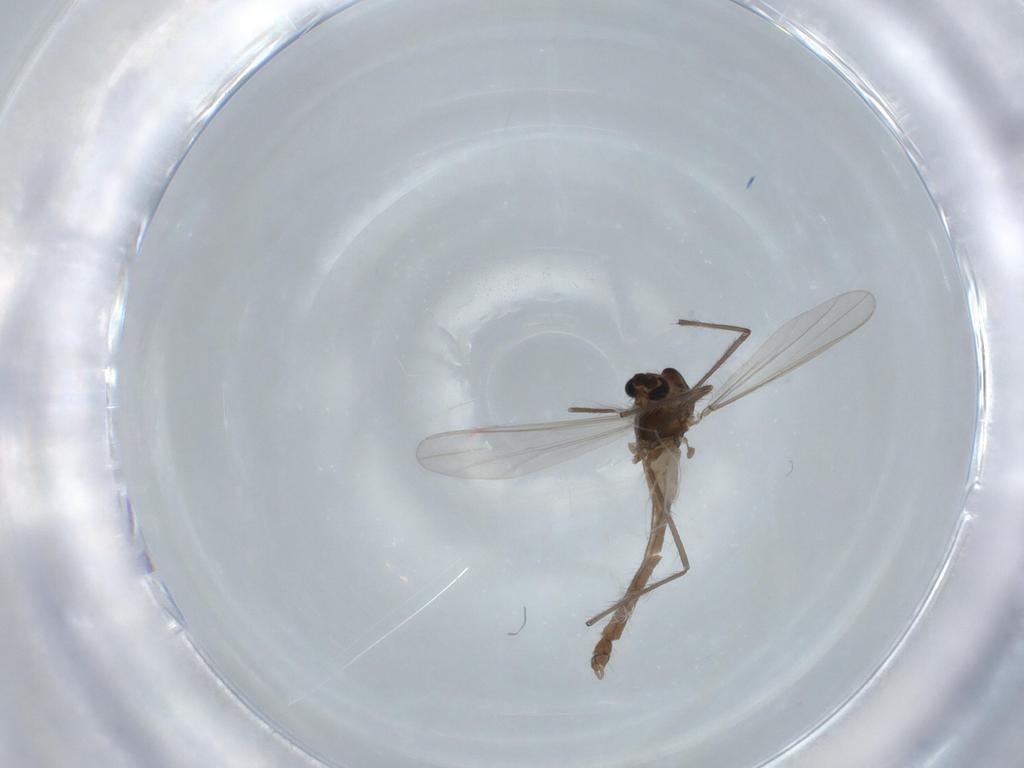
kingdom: Animalia
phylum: Arthropoda
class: Insecta
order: Diptera
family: Chironomidae
